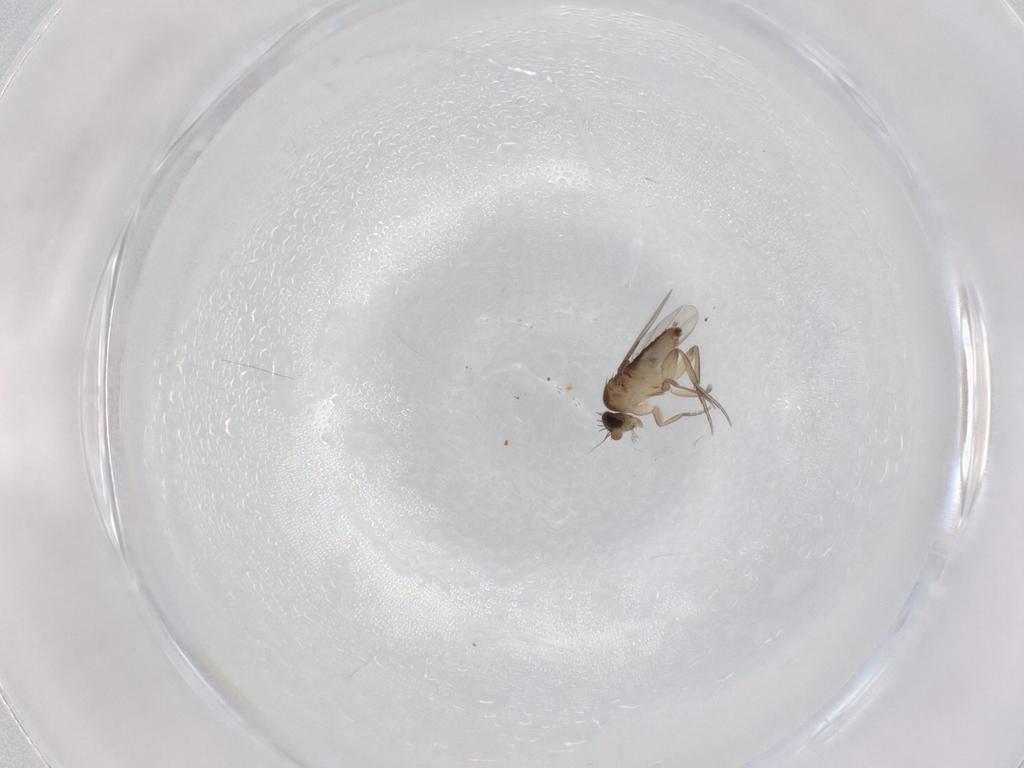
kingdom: Animalia
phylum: Arthropoda
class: Insecta
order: Diptera
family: Phoridae
